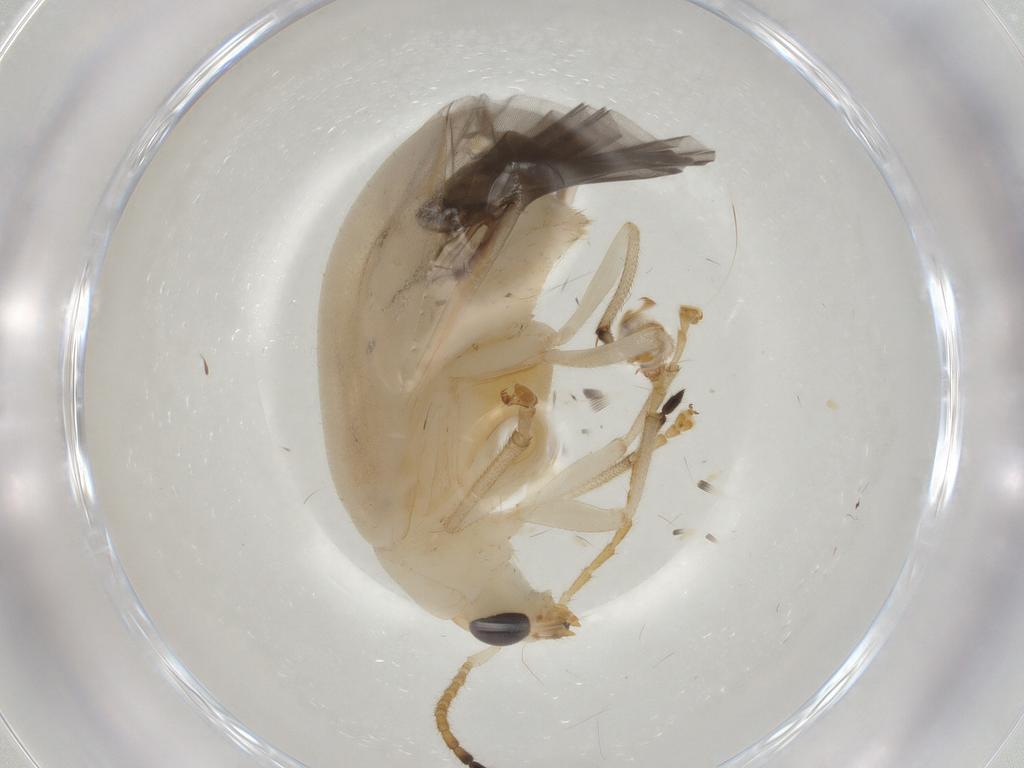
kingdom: Animalia
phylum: Arthropoda
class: Insecta
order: Coleoptera
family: Chrysomelidae
